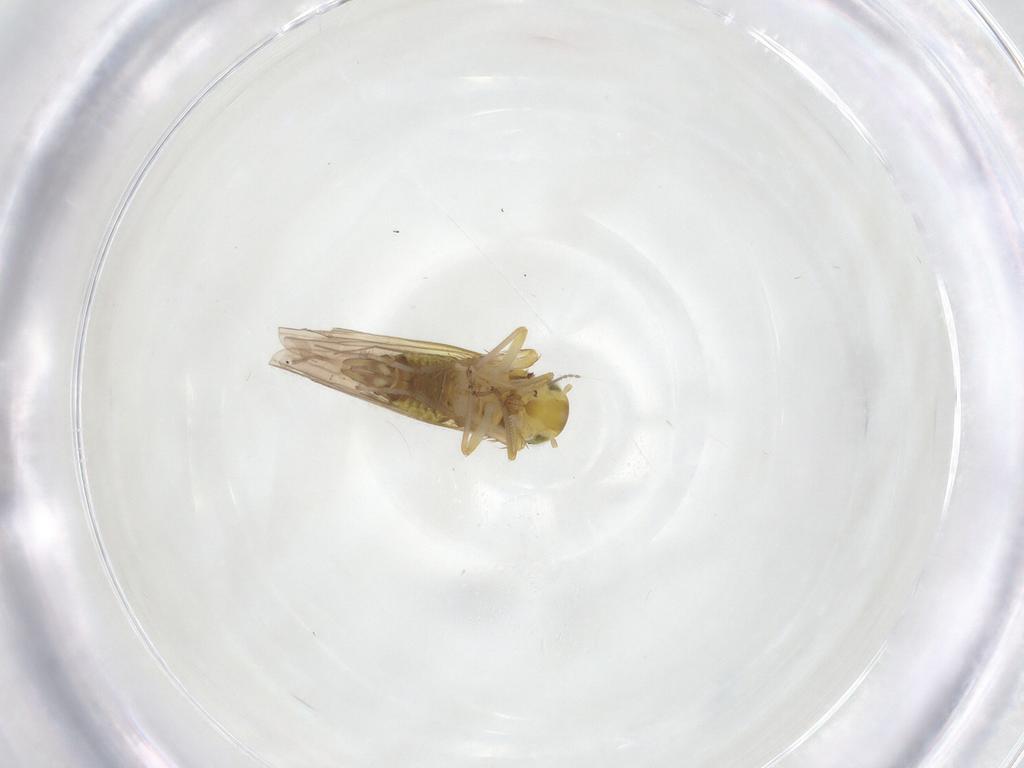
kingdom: Animalia
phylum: Arthropoda
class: Insecta
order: Hemiptera
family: Cicadellidae
